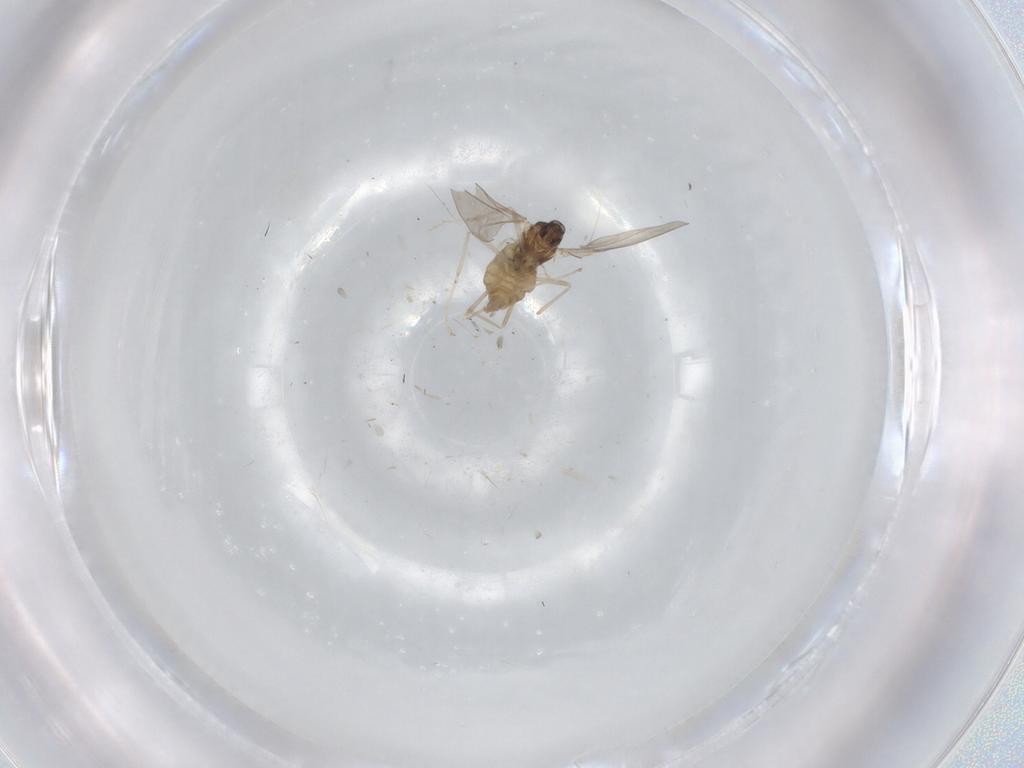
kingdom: Animalia
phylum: Arthropoda
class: Insecta
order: Diptera
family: Cecidomyiidae
